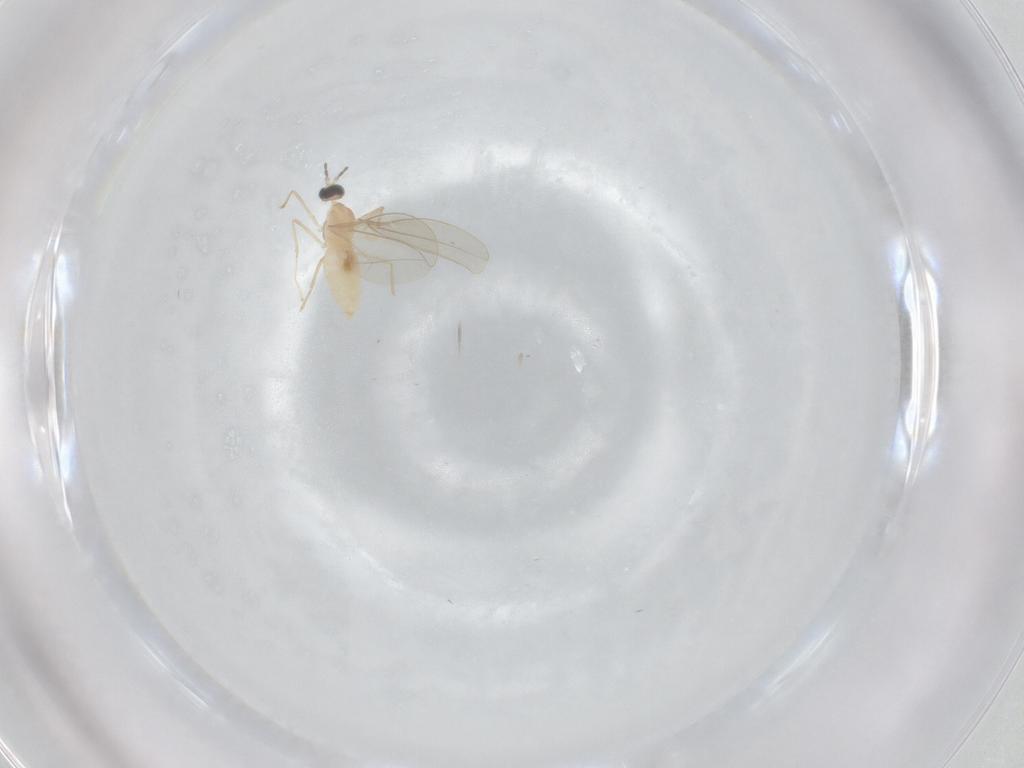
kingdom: Animalia
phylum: Arthropoda
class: Insecta
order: Diptera
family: Cecidomyiidae
